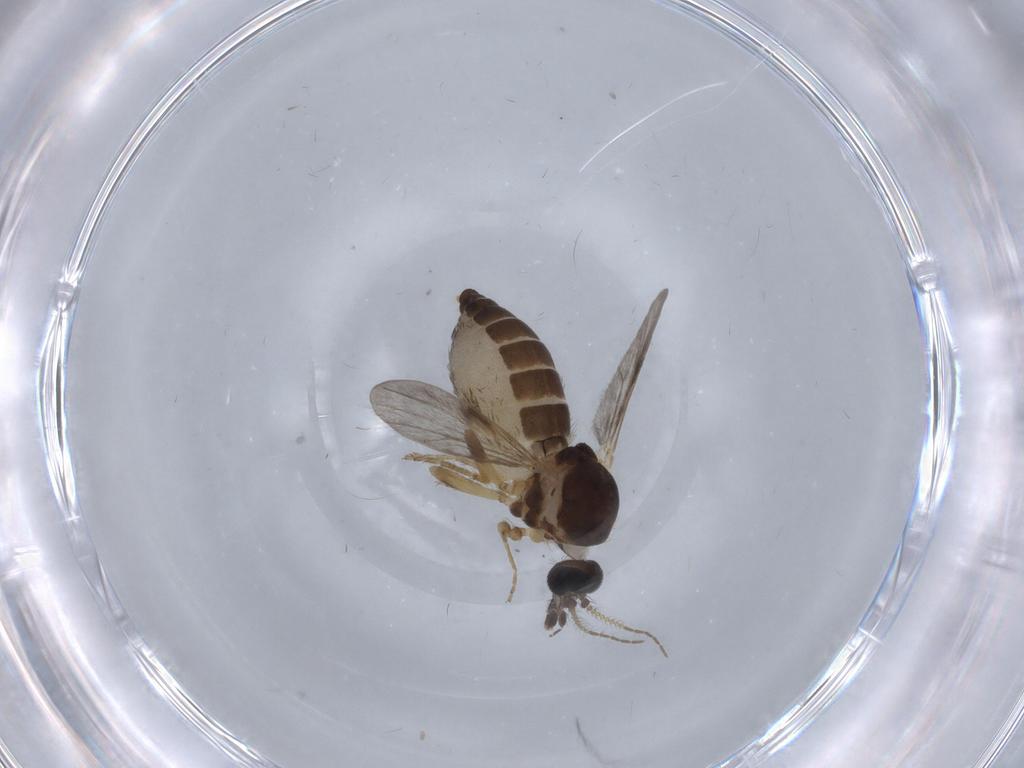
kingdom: Animalia
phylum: Arthropoda
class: Insecta
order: Diptera
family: Ceratopogonidae
